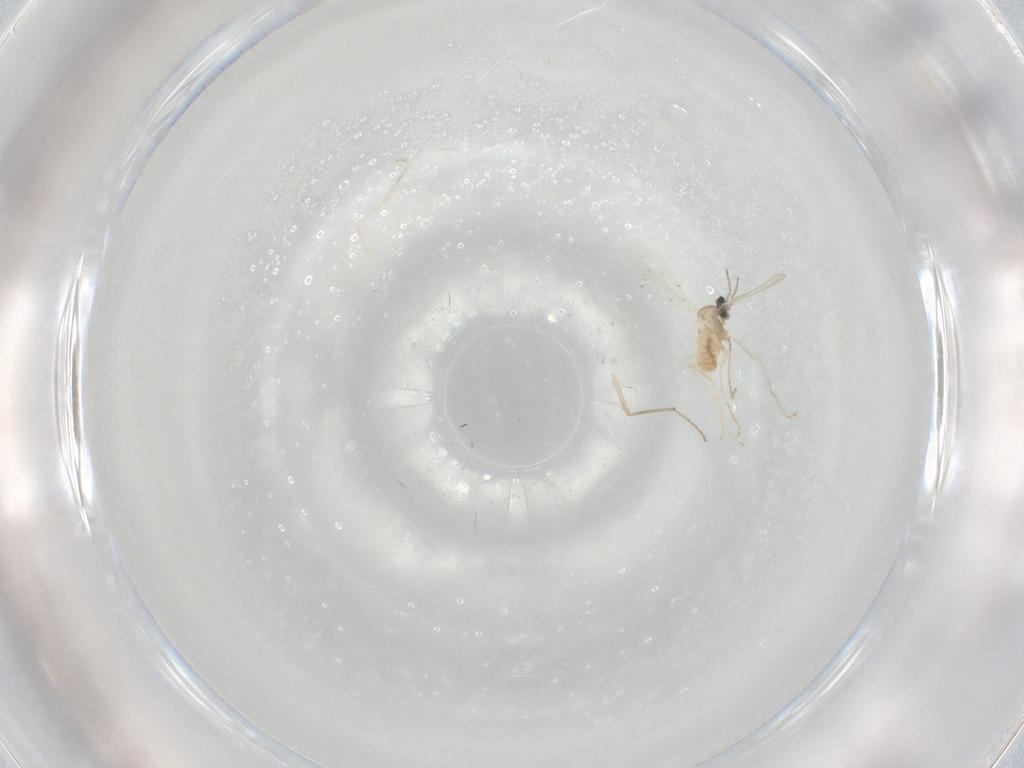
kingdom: Animalia
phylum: Arthropoda
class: Insecta
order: Diptera
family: Cecidomyiidae
